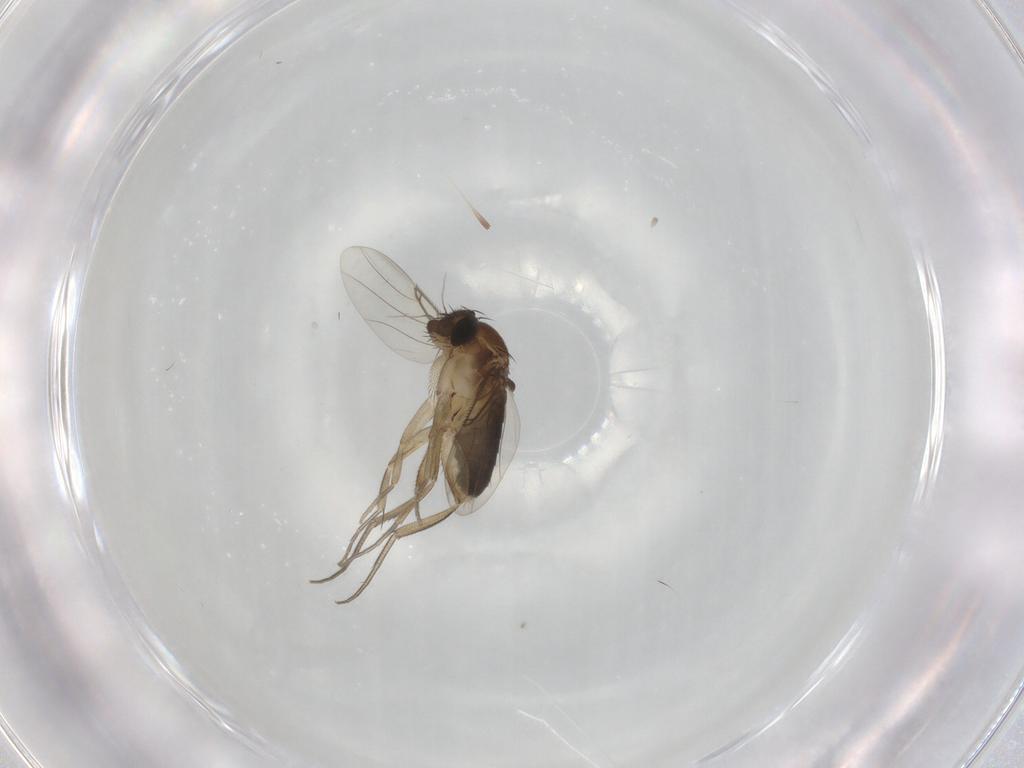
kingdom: Animalia
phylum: Arthropoda
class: Insecta
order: Diptera
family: Phoridae
